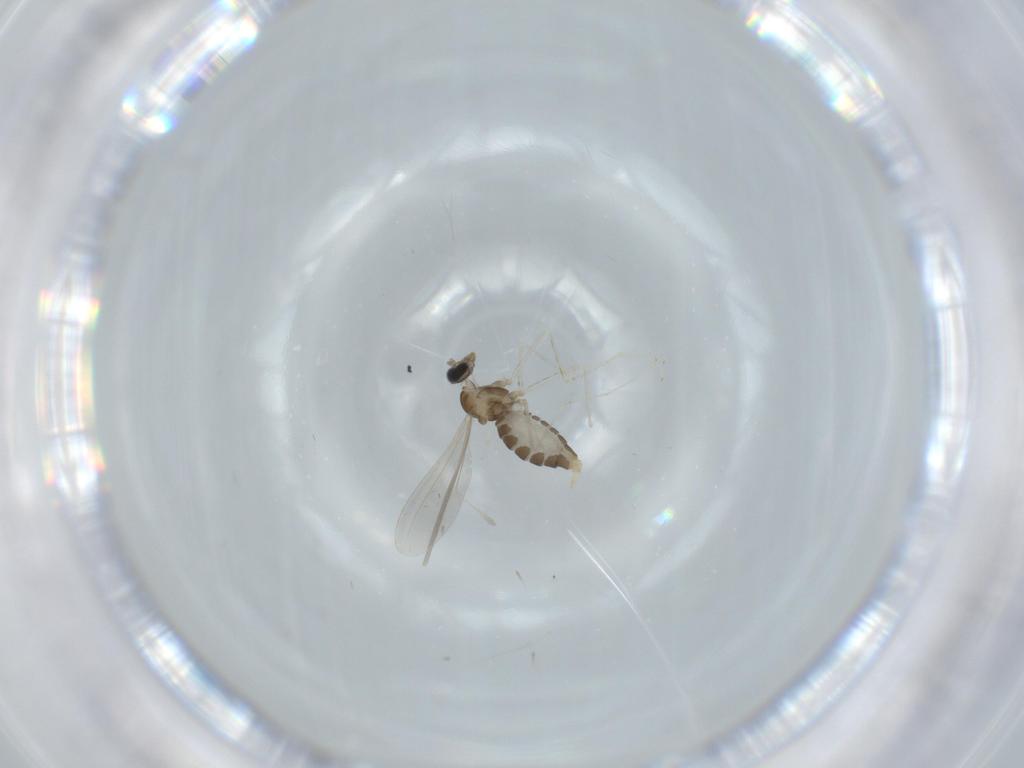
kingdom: Animalia
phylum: Arthropoda
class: Insecta
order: Diptera
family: Cecidomyiidae
